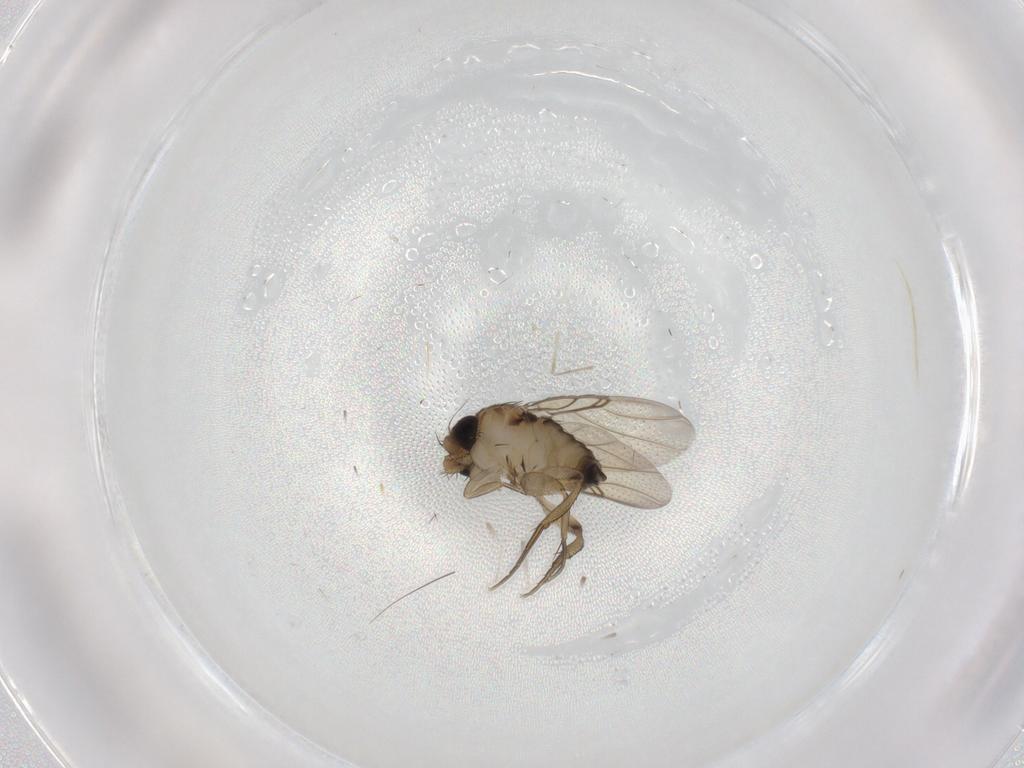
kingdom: Animalia
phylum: Arthropoda
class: Insecta
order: Diptera
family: Phoridae
